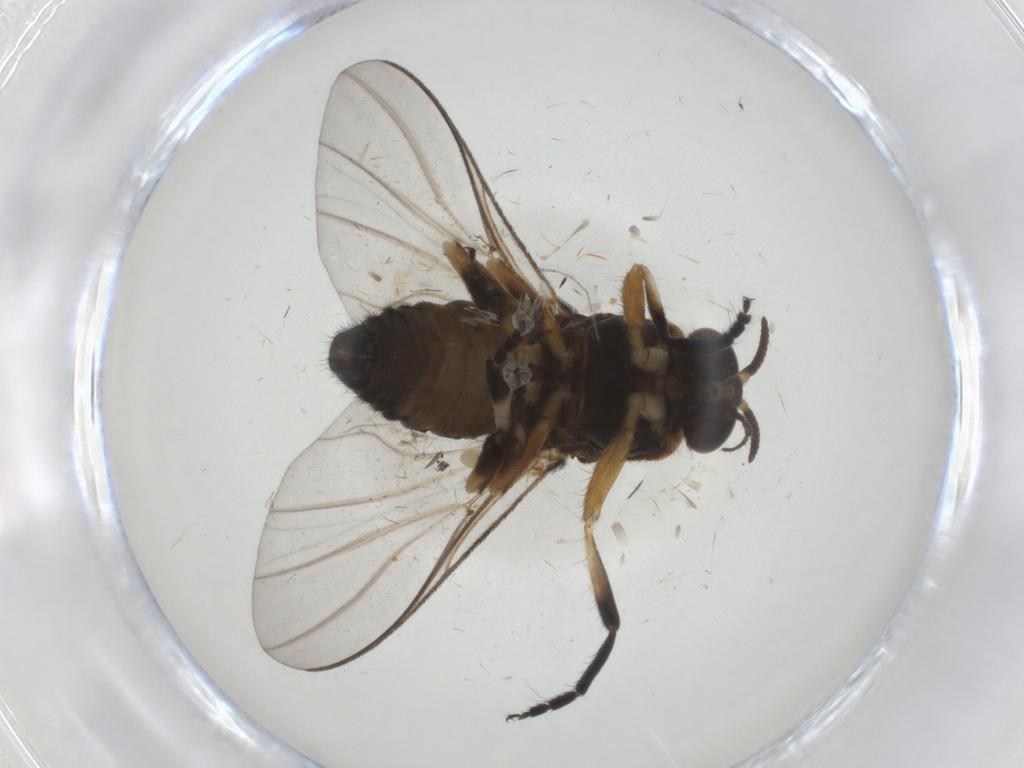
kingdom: Animalia
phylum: Arthropoda
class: Insecta
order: Diptera
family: Sciaridae
